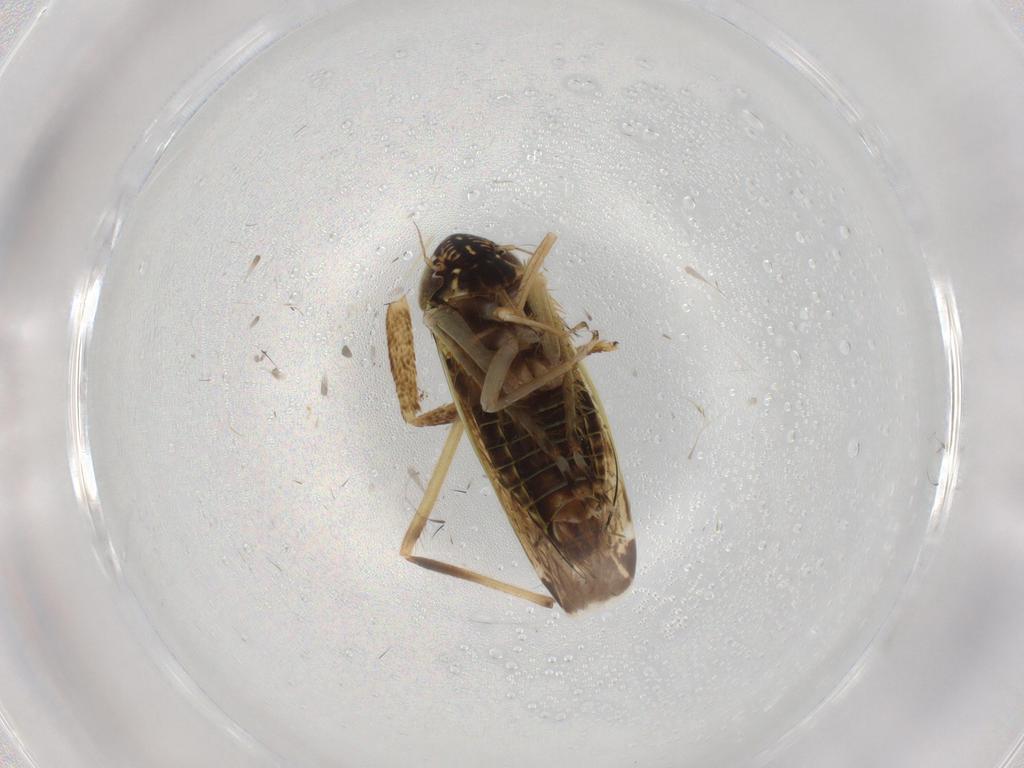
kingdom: Animalia
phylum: Arthropoda
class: Insecta
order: Hemiptera
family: Cicadellidae
